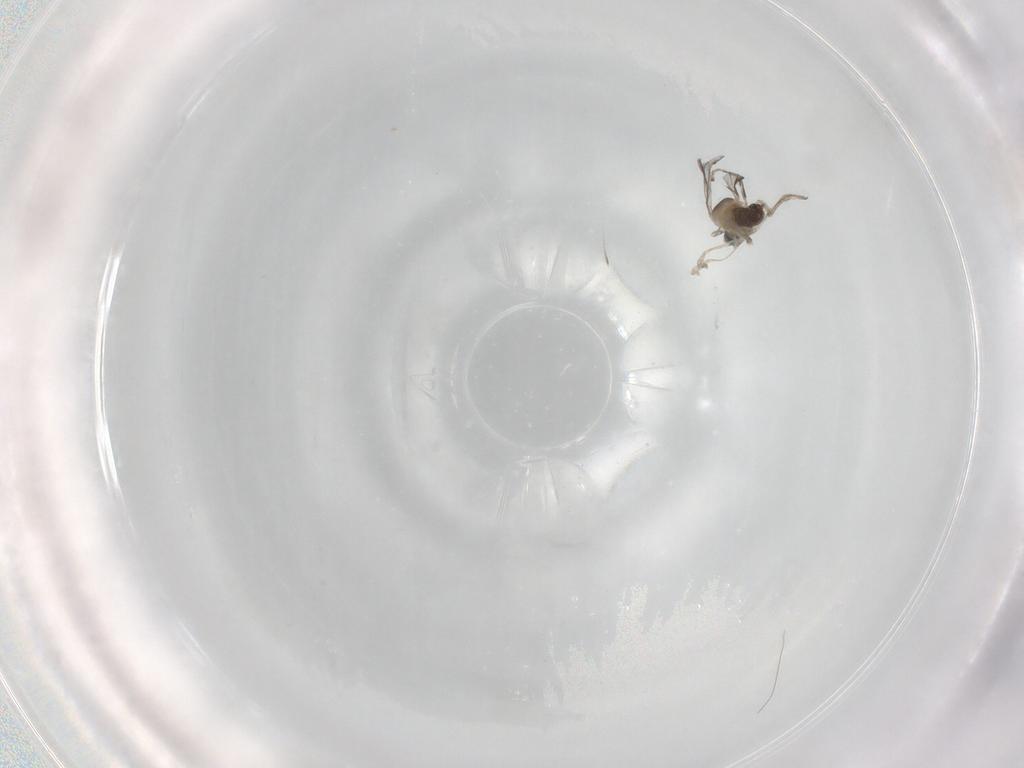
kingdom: Animalia
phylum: Arthropoda
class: Insecta
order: Diptera
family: Cecidomyiidae
